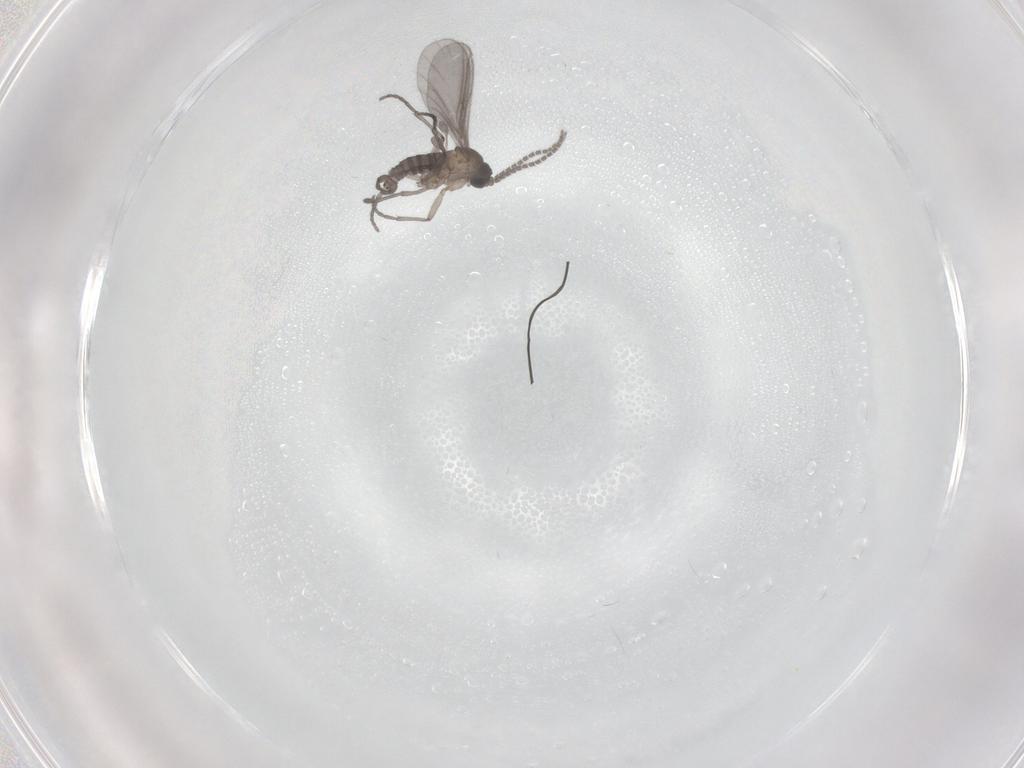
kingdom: Animalia
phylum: Arthropoda
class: Insecta
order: Diptera
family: Sciaridae
